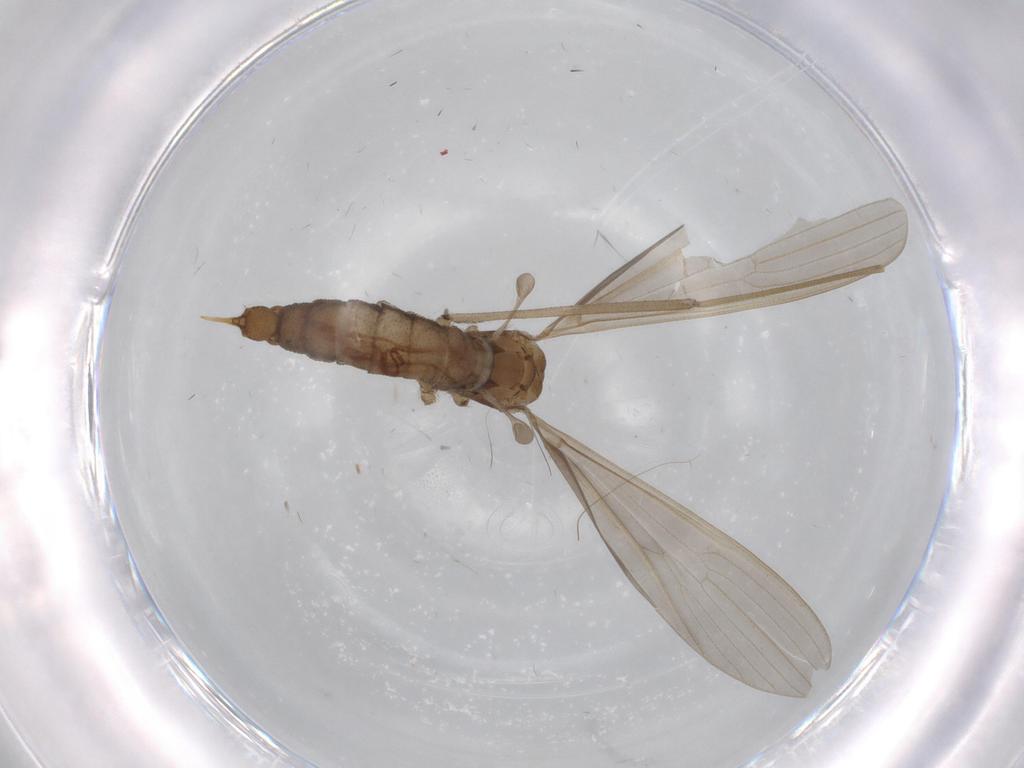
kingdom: Animalia
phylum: Arthropoda
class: Insecta
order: Diptera
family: Limoniidae
